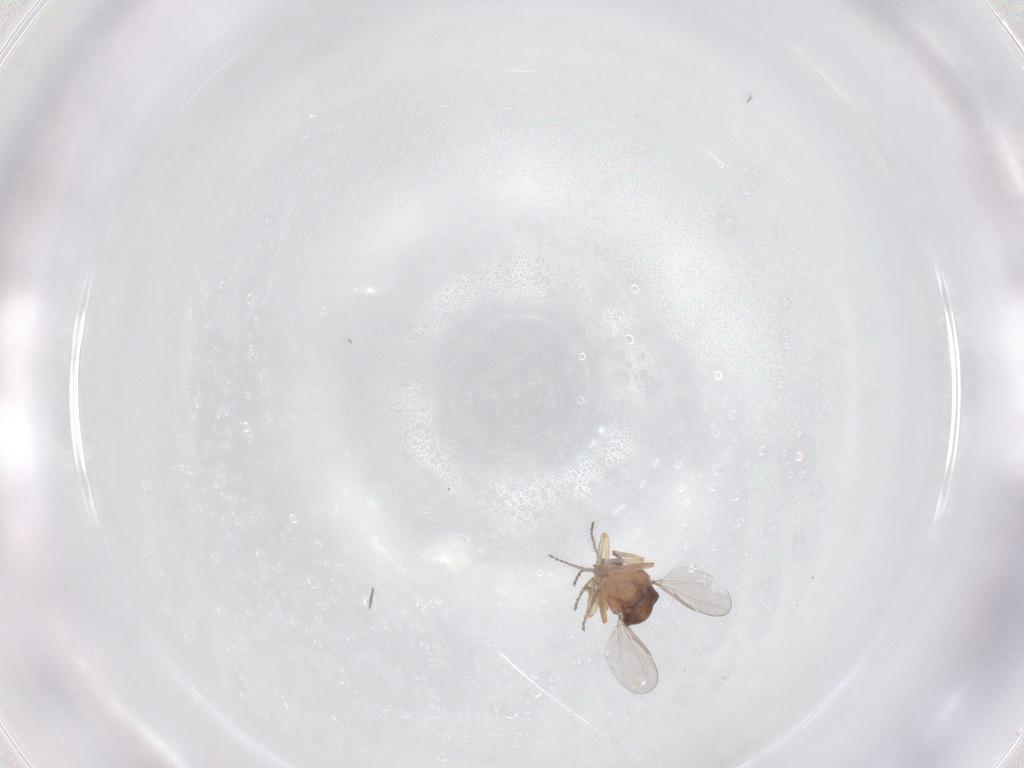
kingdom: Animalia
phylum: Arthropoda
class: Insecta
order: Diptera
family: Ceratopogonidae
